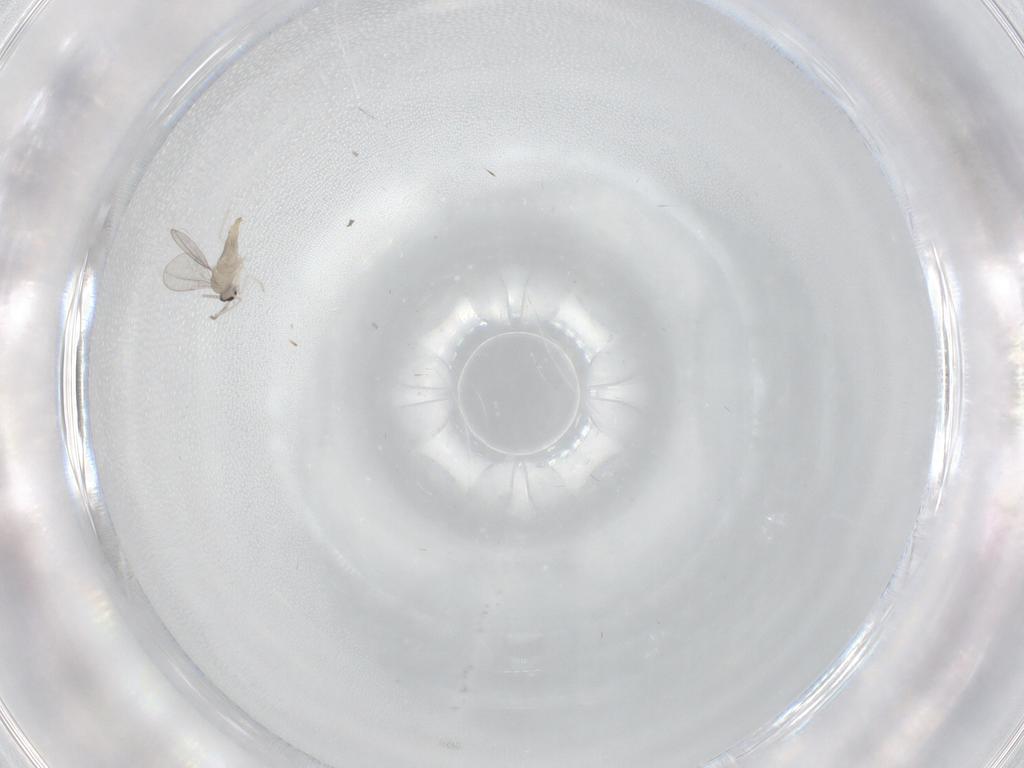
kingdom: Animalia
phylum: Arthropoda
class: Insecta
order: Diptera
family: Cecidomyiidae
